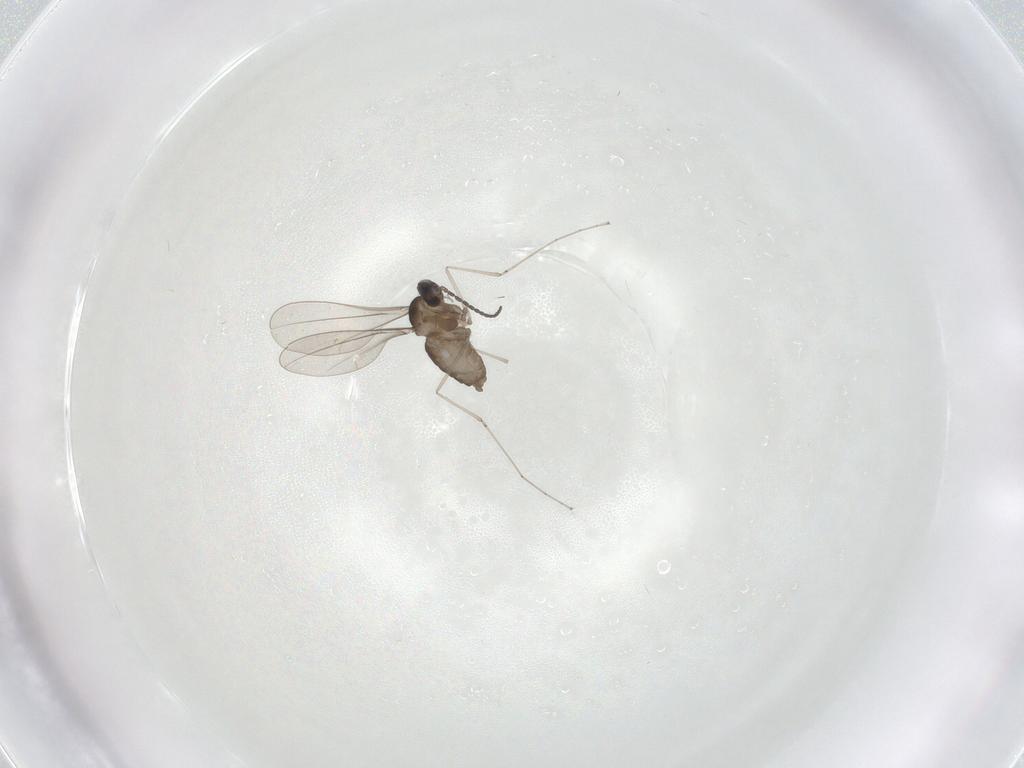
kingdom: Animalia
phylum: Arthropoda
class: Insecta
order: Diptera
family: Cecidomyiidae
